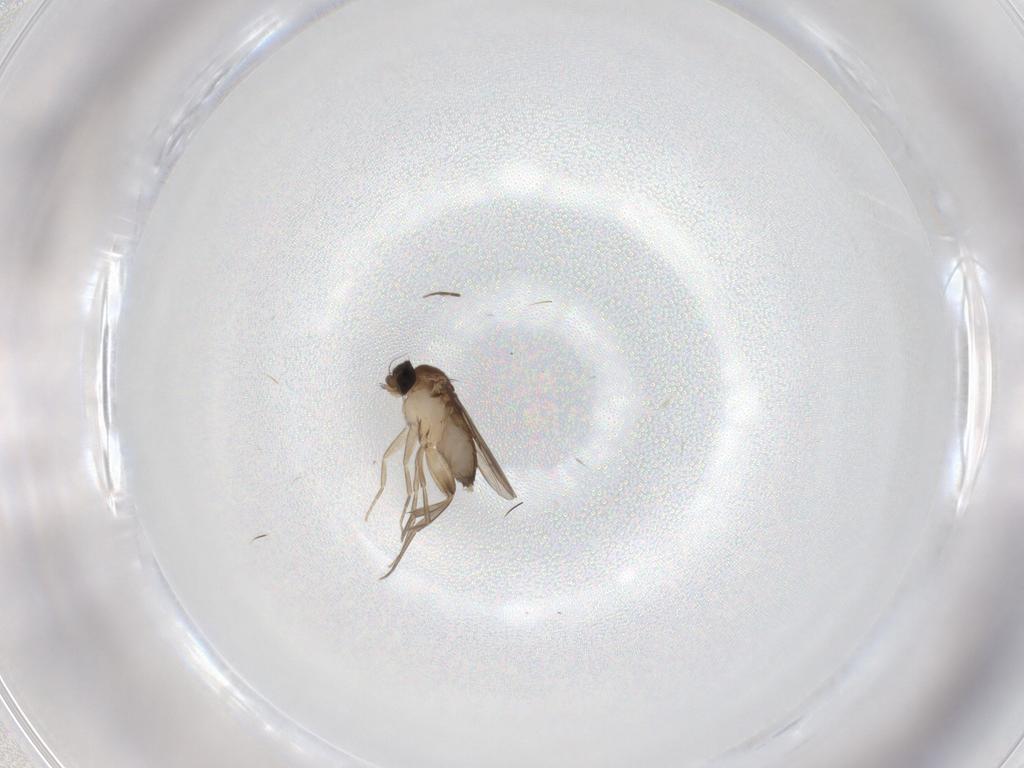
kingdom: Animalia
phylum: Arthropoda
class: Insecta
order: Diptera
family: Phoridae
